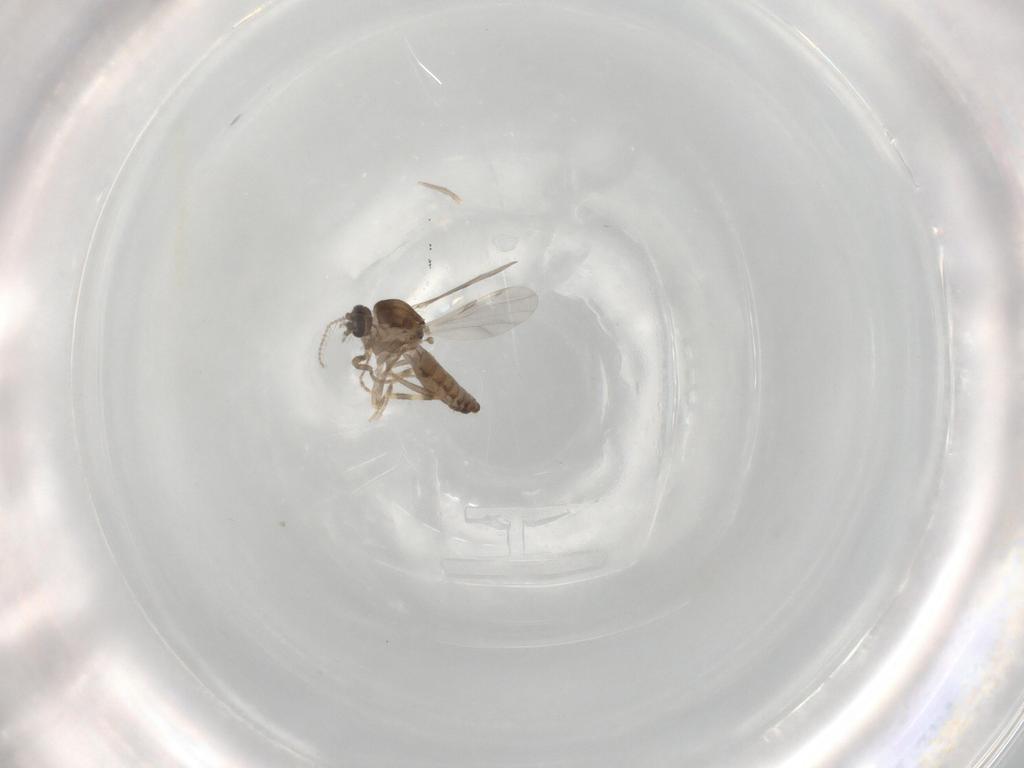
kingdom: Animalia
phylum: Arthropoda
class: Insecta
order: Diptera
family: Ceratopogonidae
